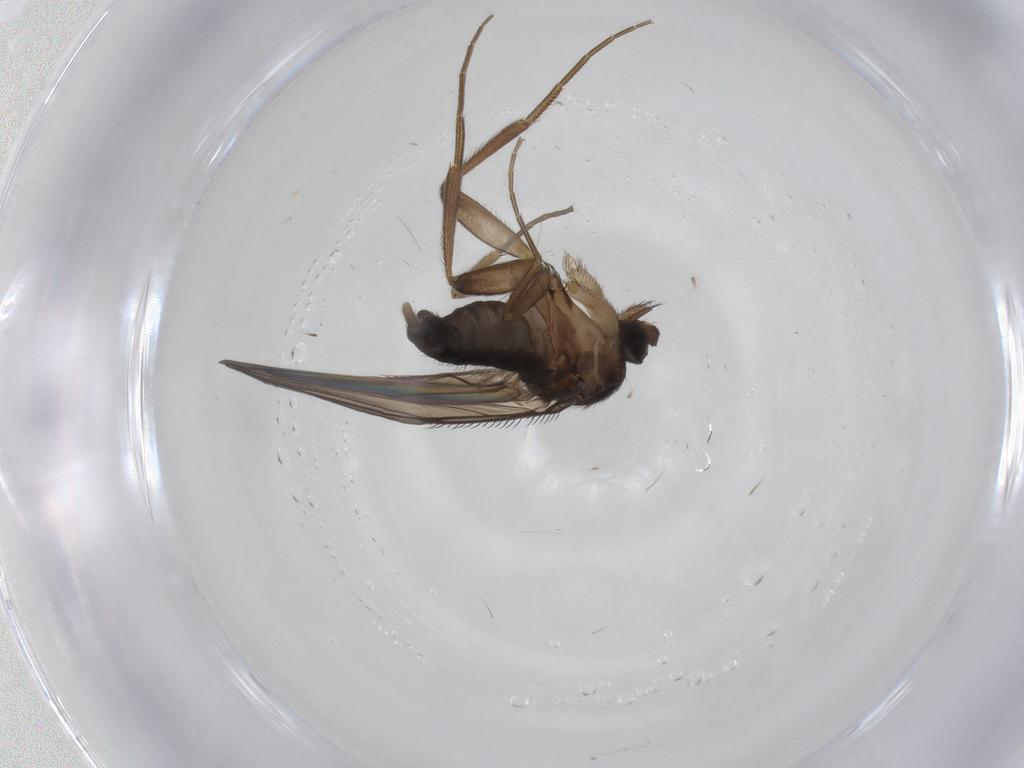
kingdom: Animalia
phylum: Arthropoda
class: Insecta
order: Diptera
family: Phoridae
